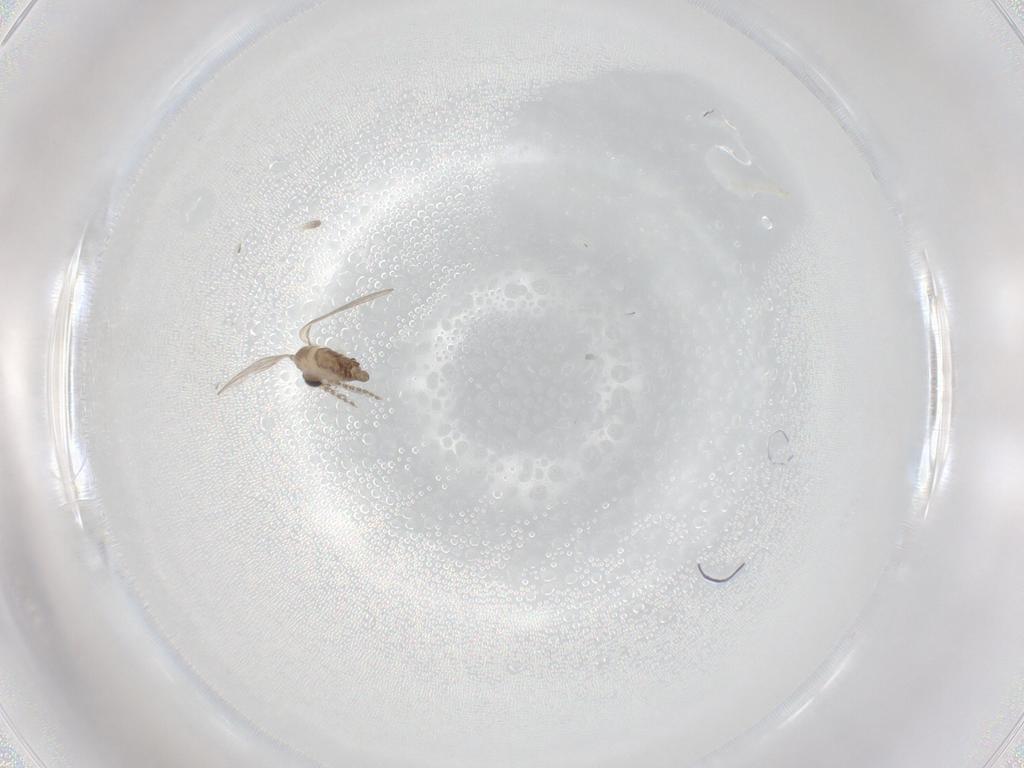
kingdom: Animalia
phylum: Arthropoda
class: Insecta
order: Diptera
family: Psychodidae
